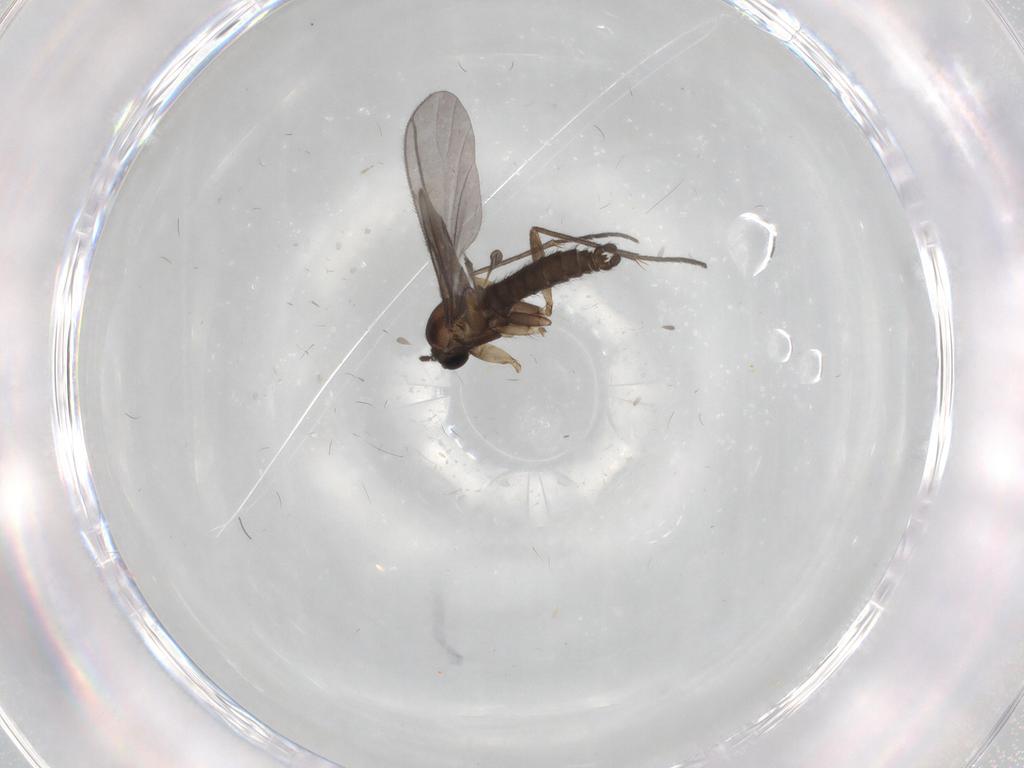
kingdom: Animalia
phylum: Arthropoda
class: Insecta
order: Diptera
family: Sciaridae
